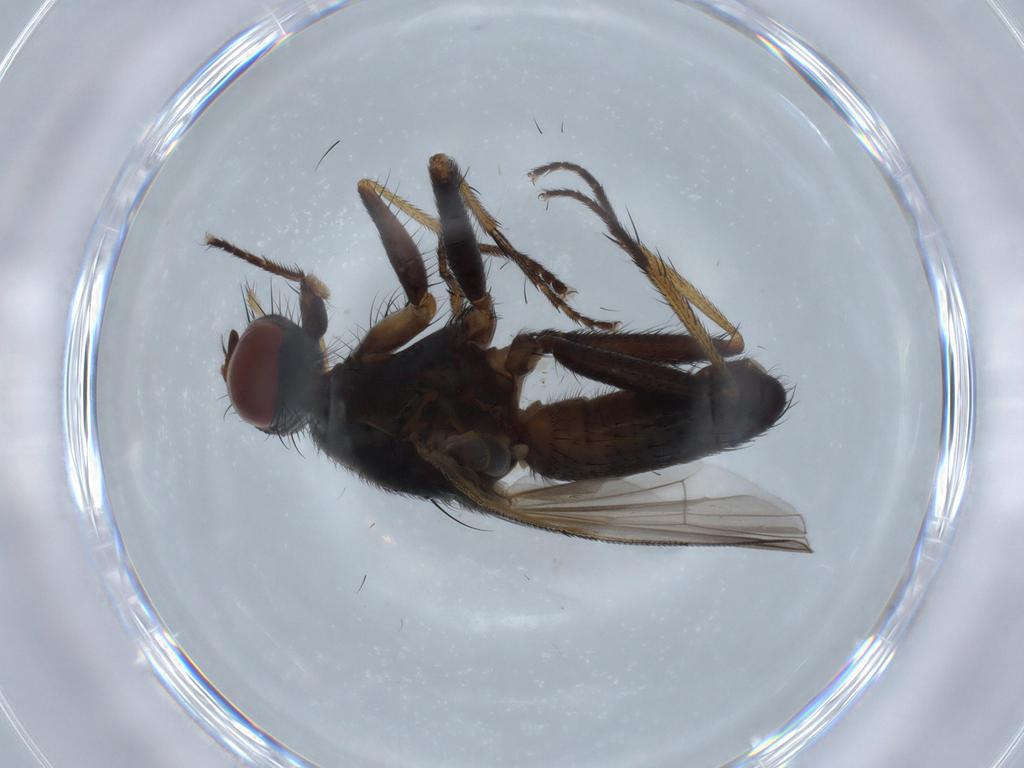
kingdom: Animalia
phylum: Arthropoda
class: Insecta
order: Diptera
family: Muscidae
